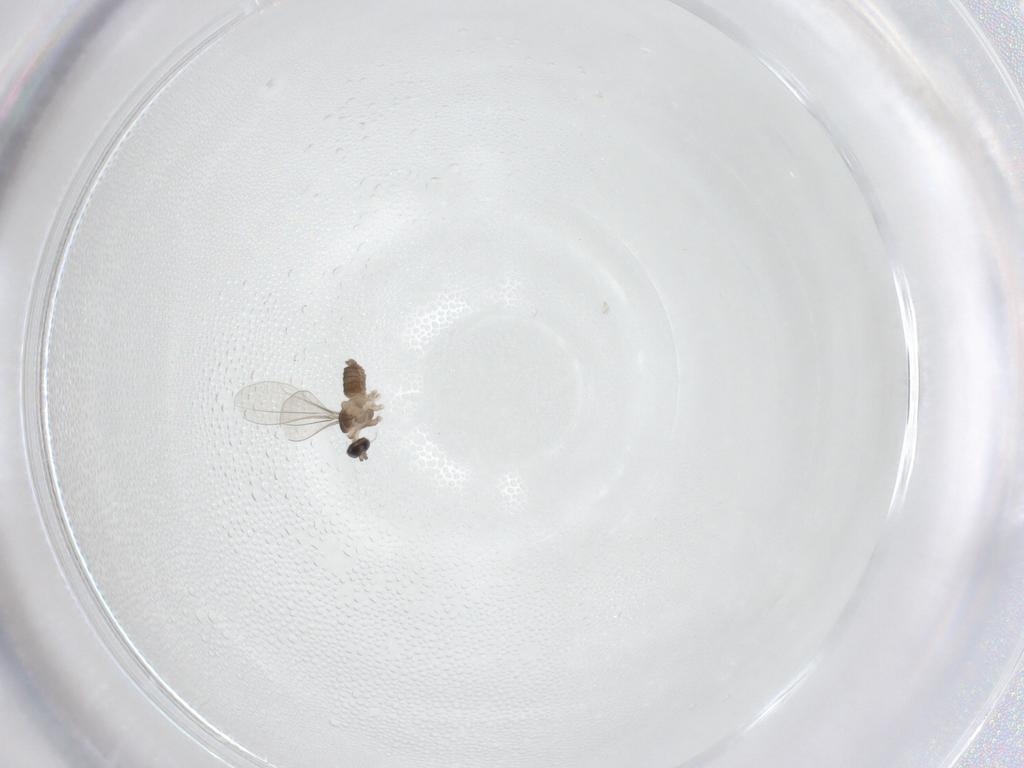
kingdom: Animalia
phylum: Arthropoda
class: Insecta
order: Diptera
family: Cecidomyiidae
